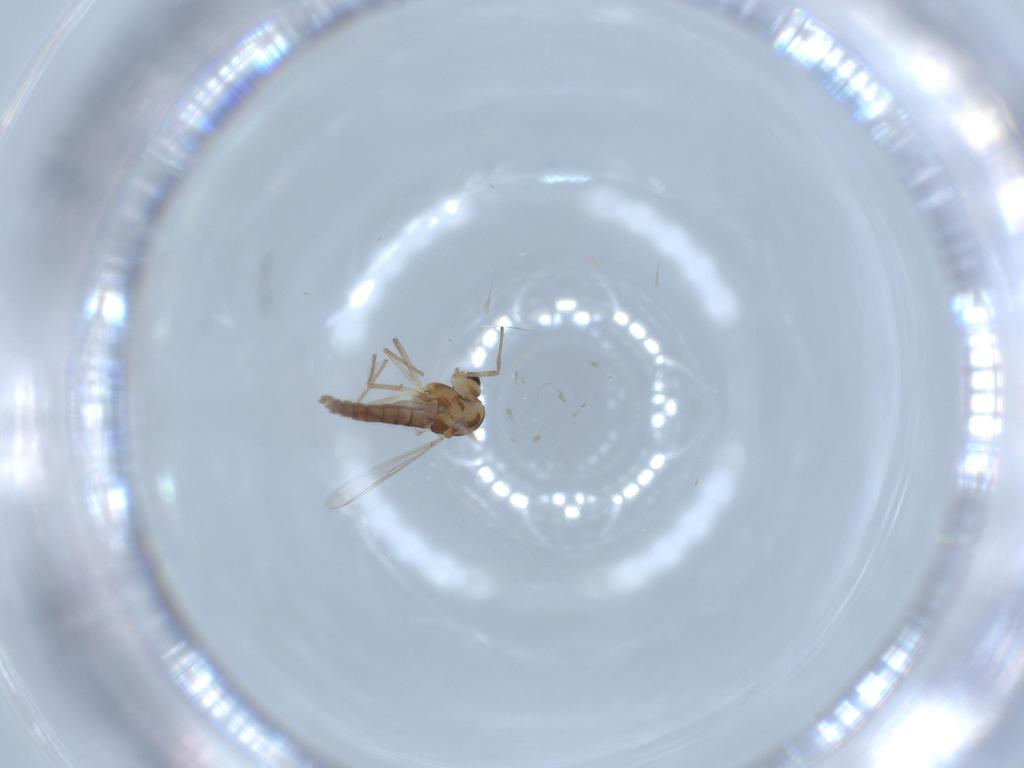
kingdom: Animalia
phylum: Arthropoda
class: Insecta
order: Diptera
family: Chironomidae
